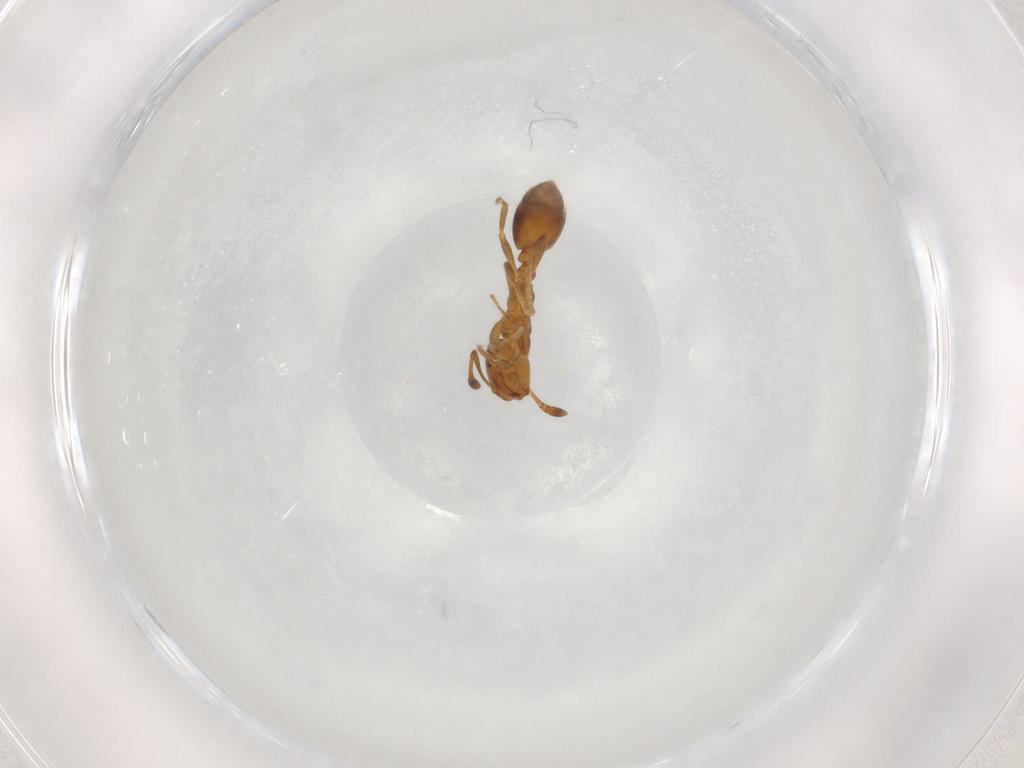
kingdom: Animalia
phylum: Arthropoda
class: Insecta
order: Hymenoptera
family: Formicidae
